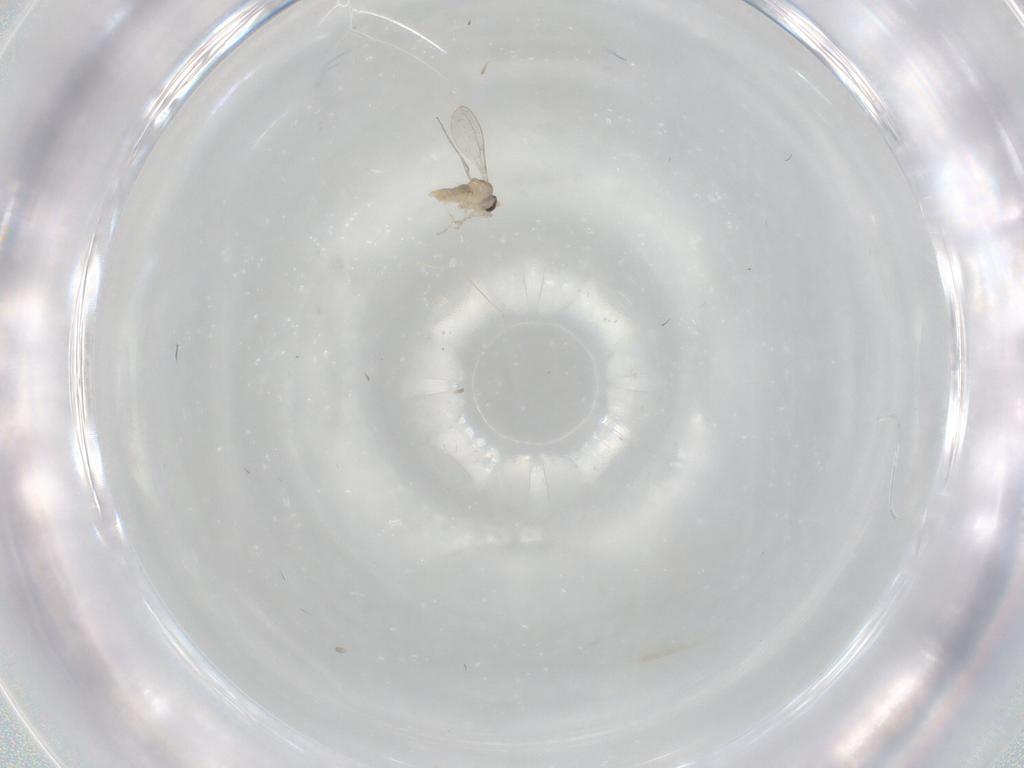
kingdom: Animalia
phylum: Arthropoda
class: Insecta
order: Diptera
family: Cecidomyiidae
